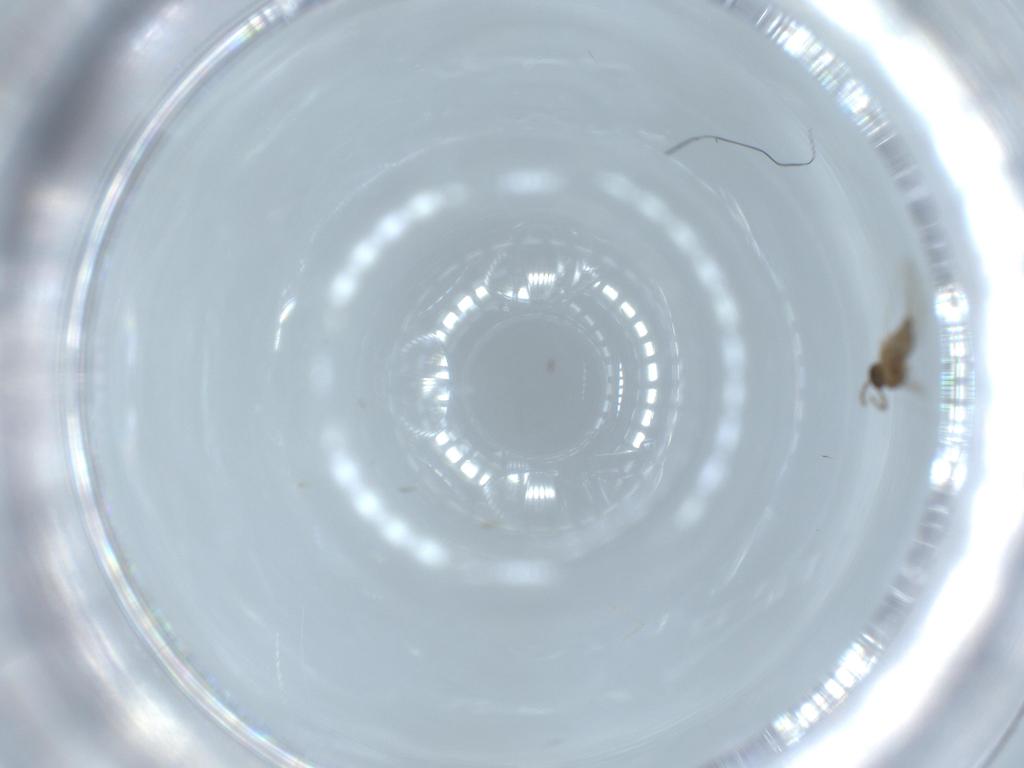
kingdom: Animalia
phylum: Arthropoda
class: Insecta
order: Diptera
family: Cecidomyiidae
